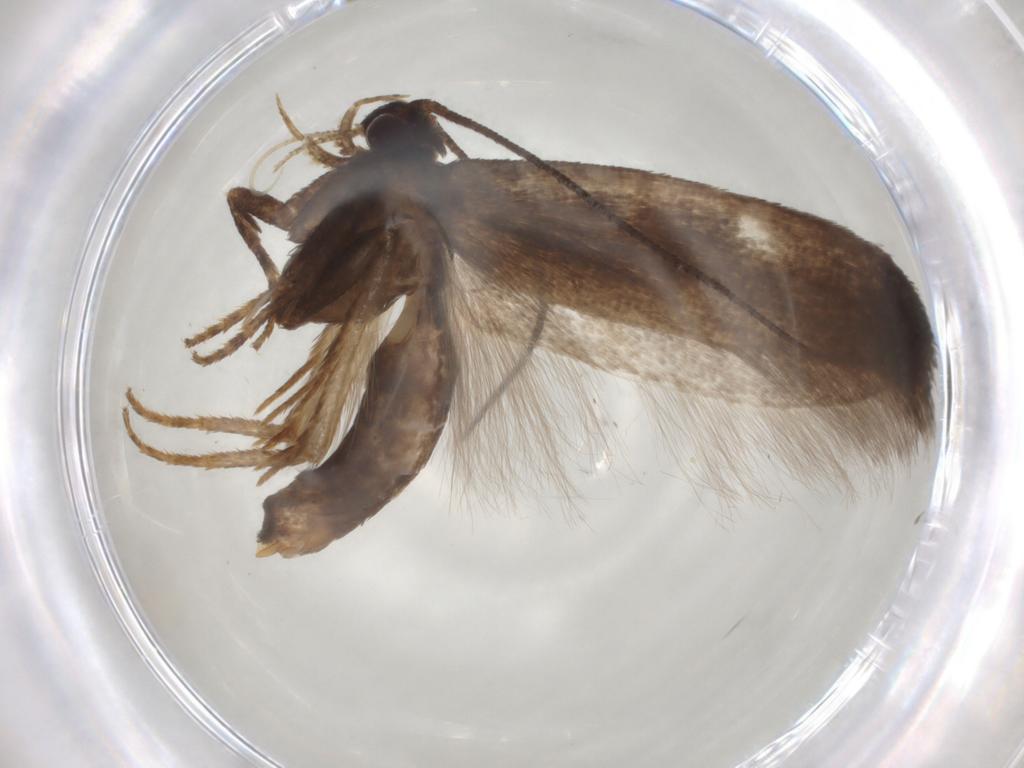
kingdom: Animalia
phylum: Arthropoda
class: Insecta
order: Lepidoptera
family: Gelechiidae
